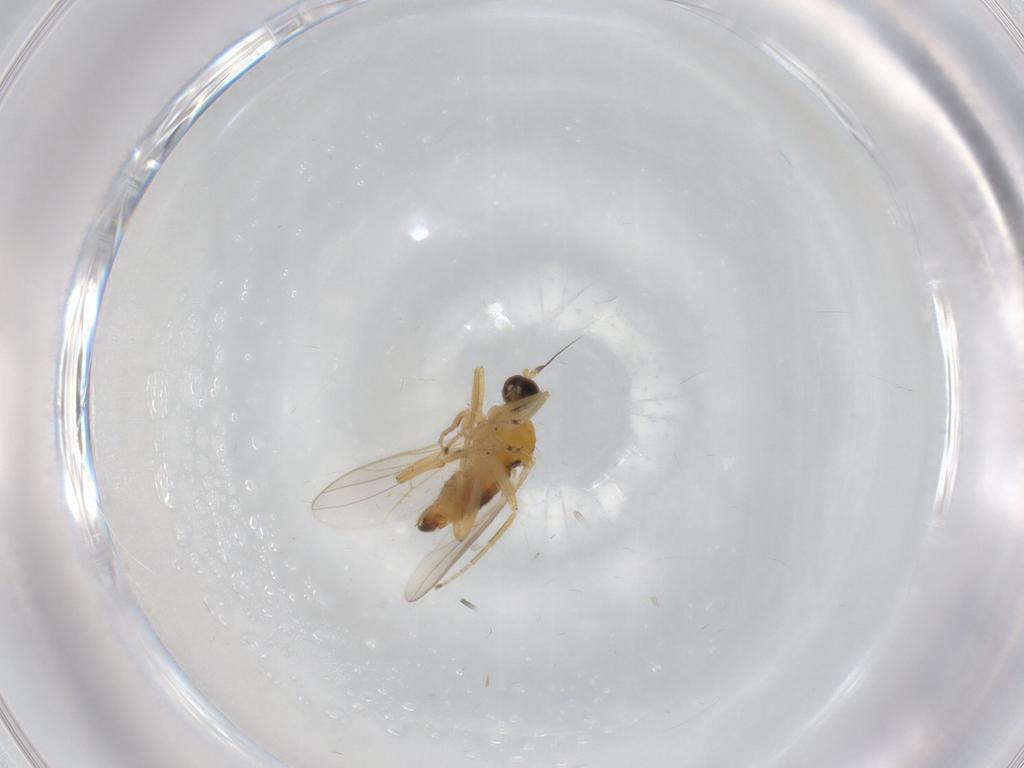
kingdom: Animalia
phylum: Arthropoda
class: Insecta
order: Diptera
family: Hybotidae
